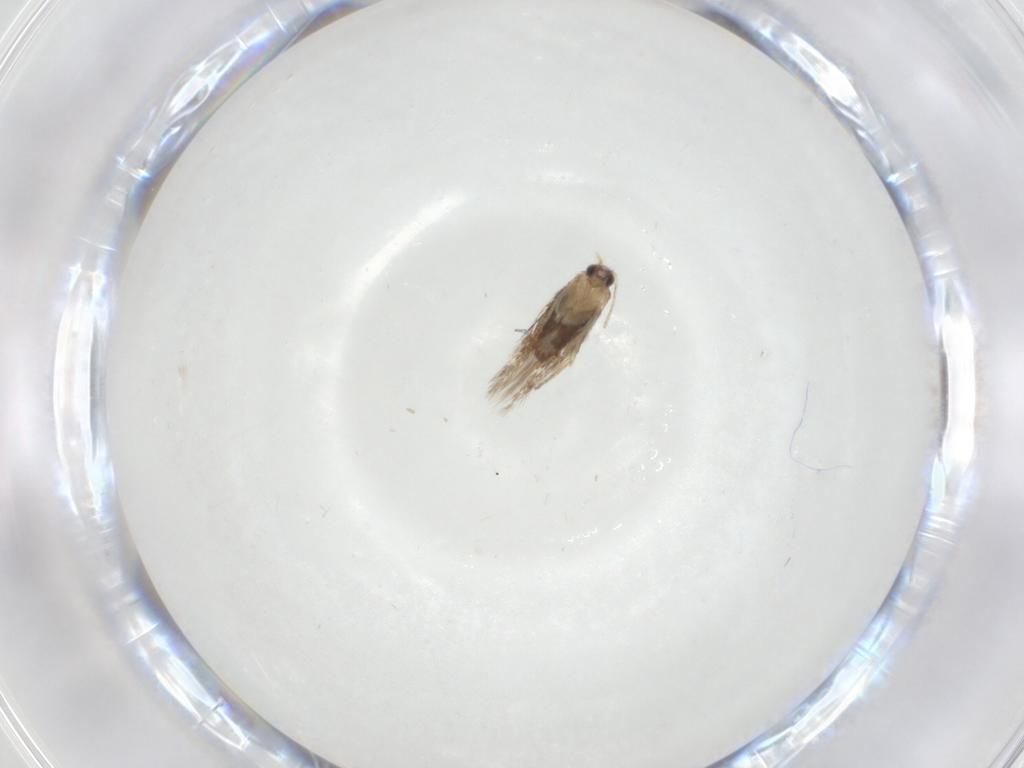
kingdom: Animalia
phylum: Arthropoda
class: Insecta
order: Lepidoptera
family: Nepticulidae
